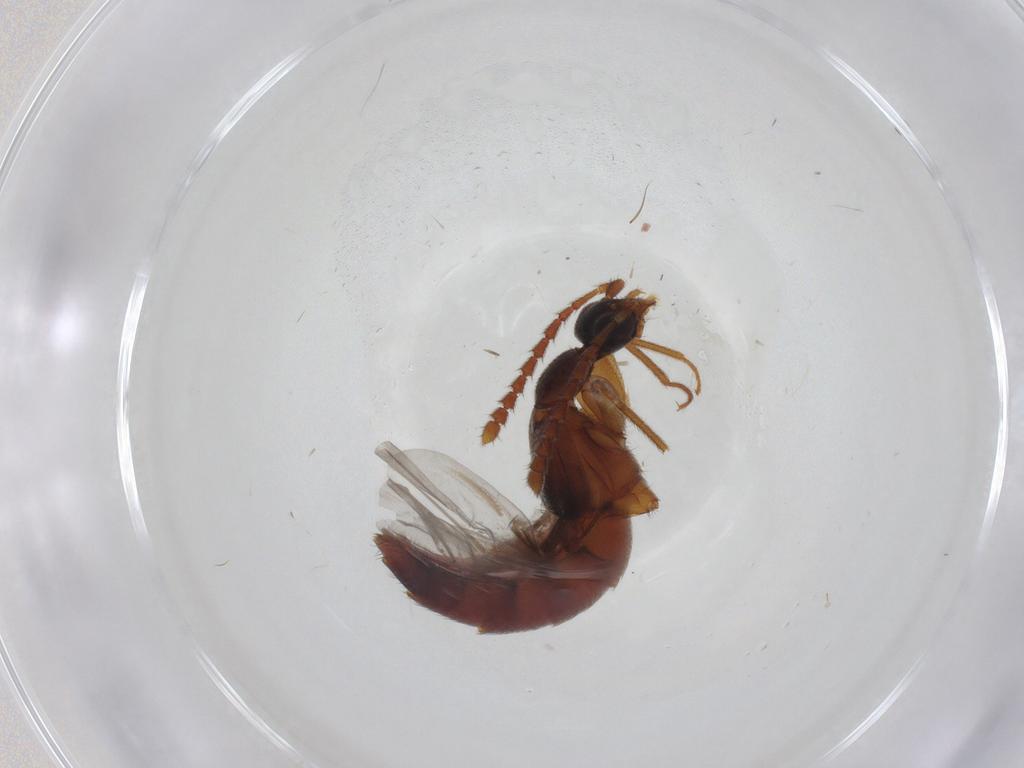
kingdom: Animalia
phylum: Arthropoda
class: Insecta
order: Coleoptera
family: Staphylinidae
